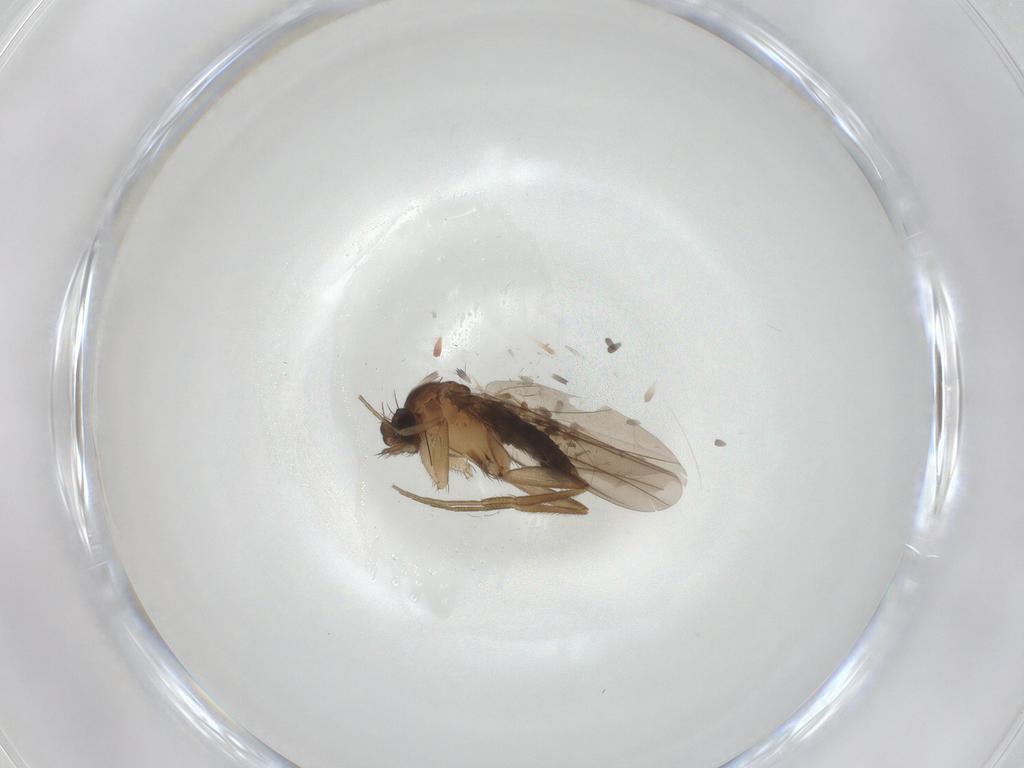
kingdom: Animalia
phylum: Arthropoda
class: Insecta
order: Diptera
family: Phoridae
